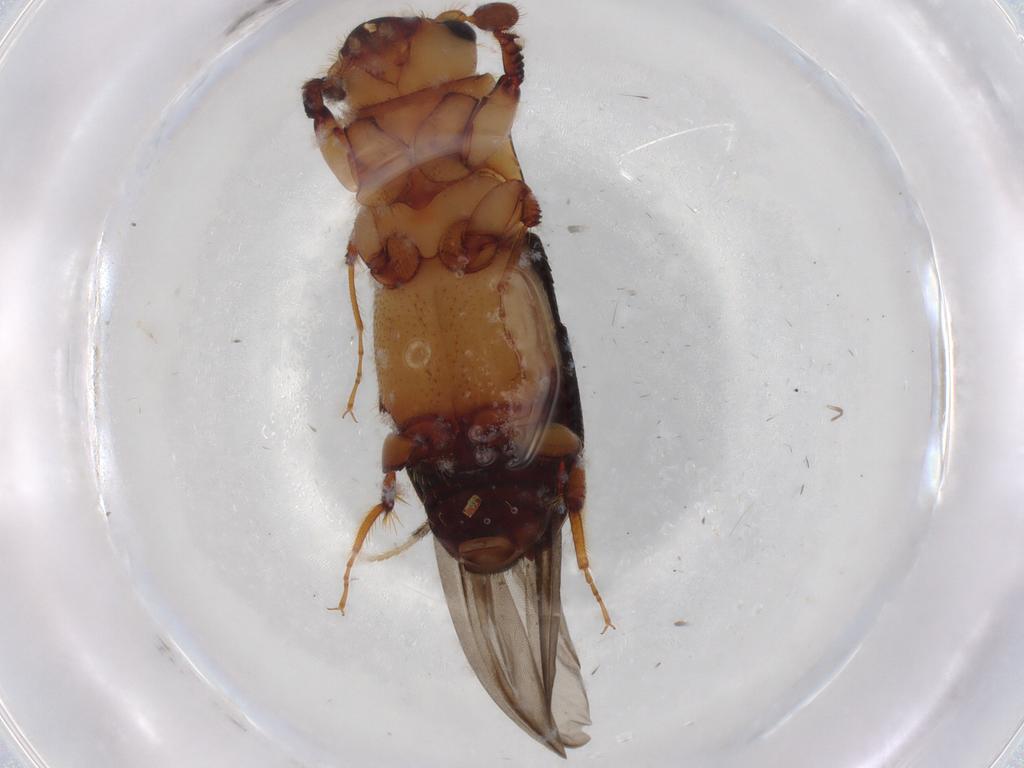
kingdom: Animalia
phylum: Arthropoda
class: Insecta
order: Coleoptera
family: Curculionidae
